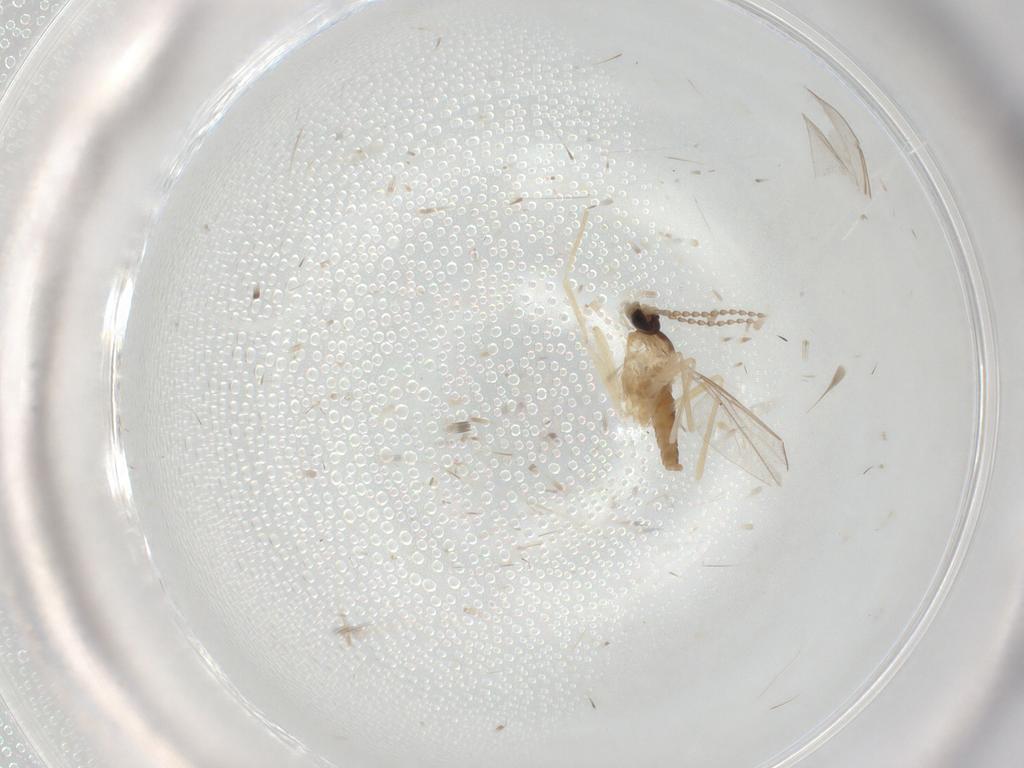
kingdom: Animalia
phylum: Arthropoda
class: Insecta
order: Diptera
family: Cecidomyiidae
